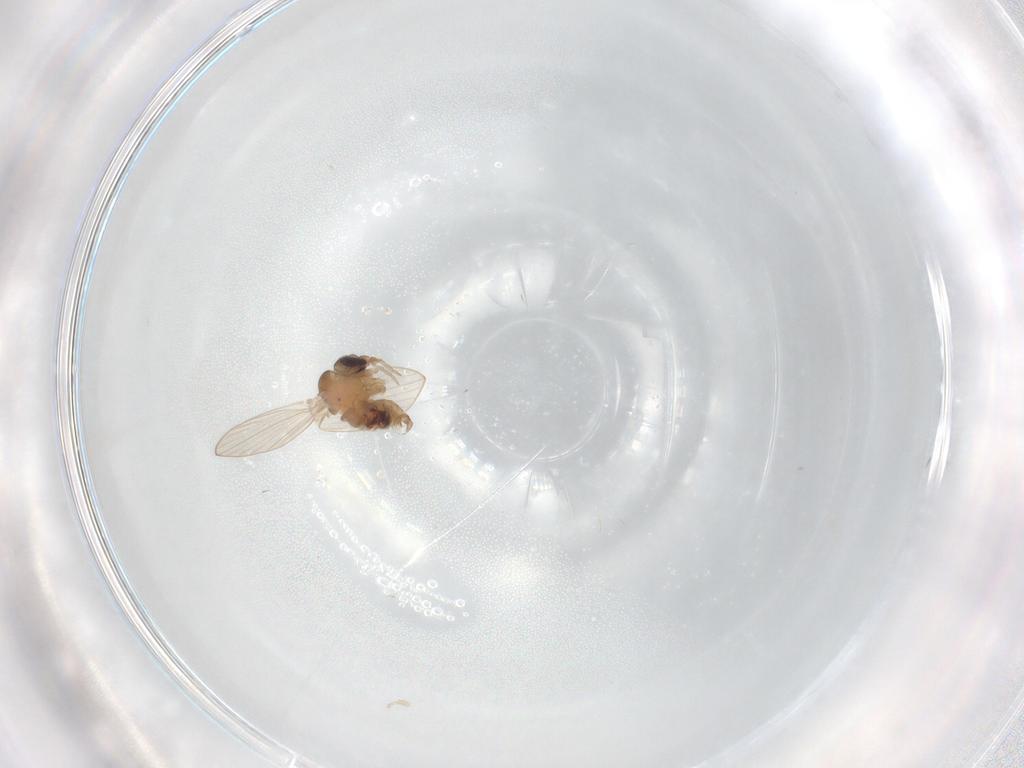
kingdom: Animalia
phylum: Arthropoda
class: Insecta
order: Diptera
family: Psychodidae
